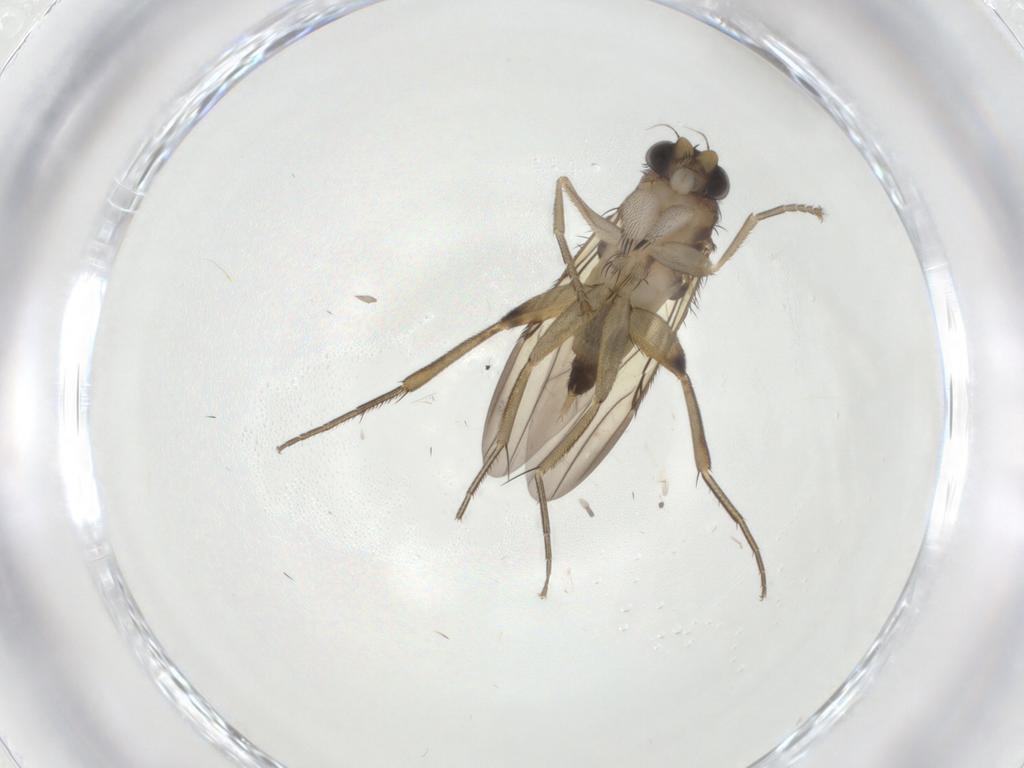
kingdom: Animalia
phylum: Arthropoda
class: Insecta
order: Diptera
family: Phoridae
